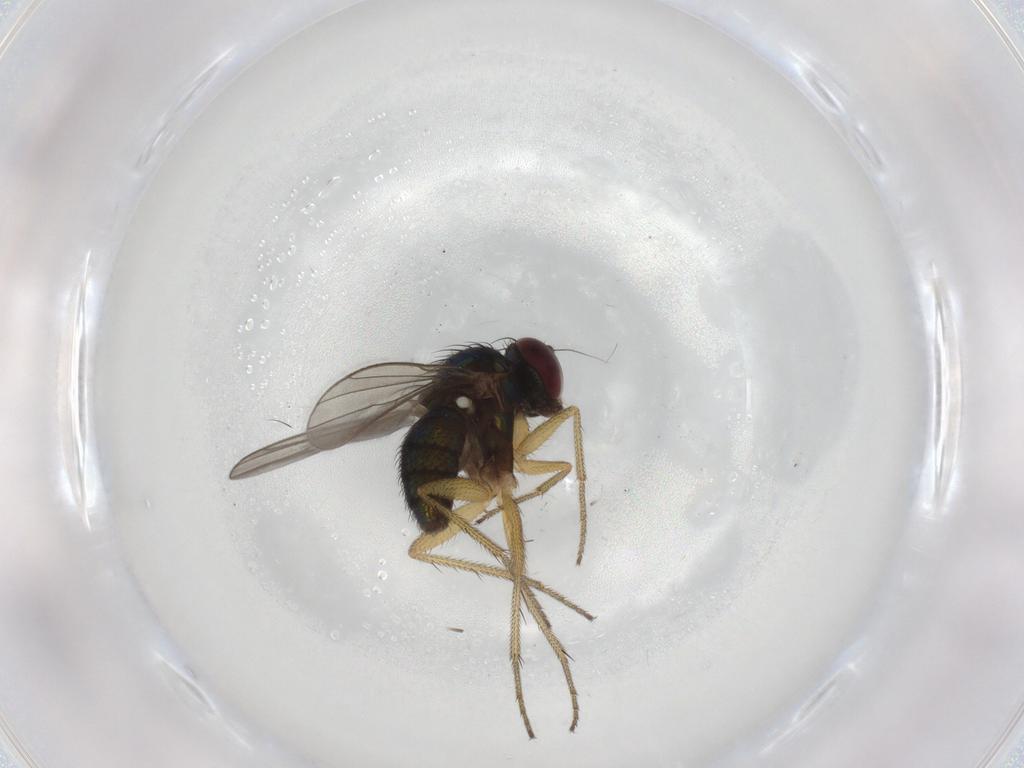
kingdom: Animalia
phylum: Arthropoda
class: Insecta
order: Diptera
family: Chironomidae
